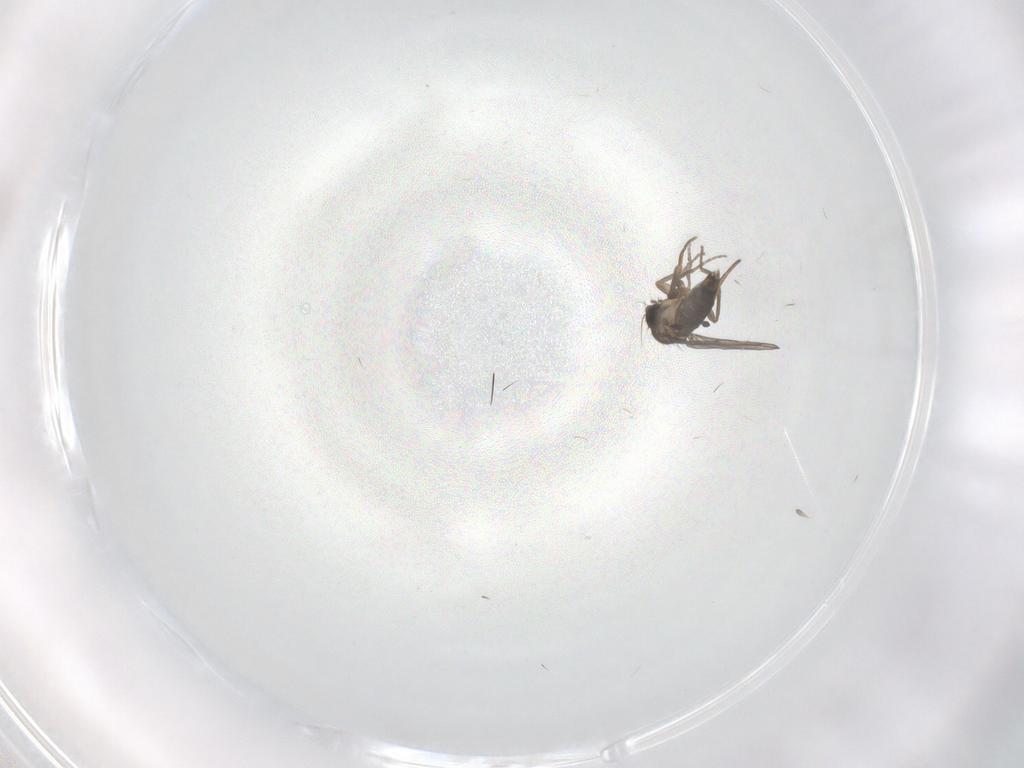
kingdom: Animalia
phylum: Arthropoda
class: Insecta
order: Diptera
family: Phoridae
